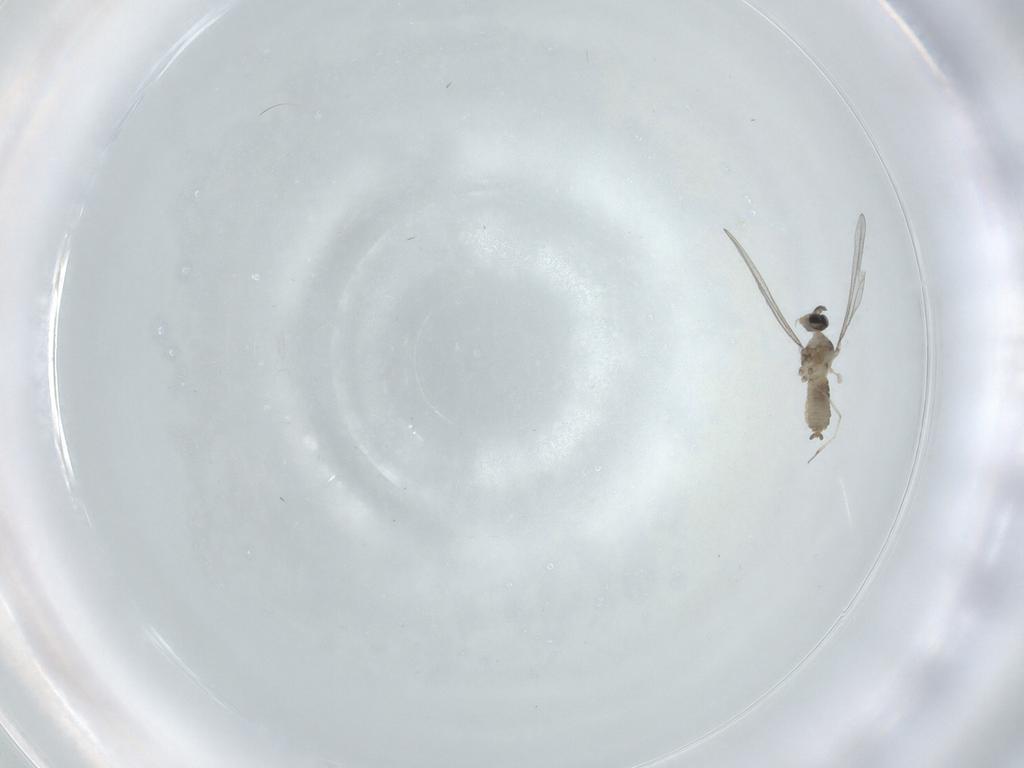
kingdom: Animalia
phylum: Arthropoda
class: Insecta
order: Diptera
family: Cecidomyiidae
